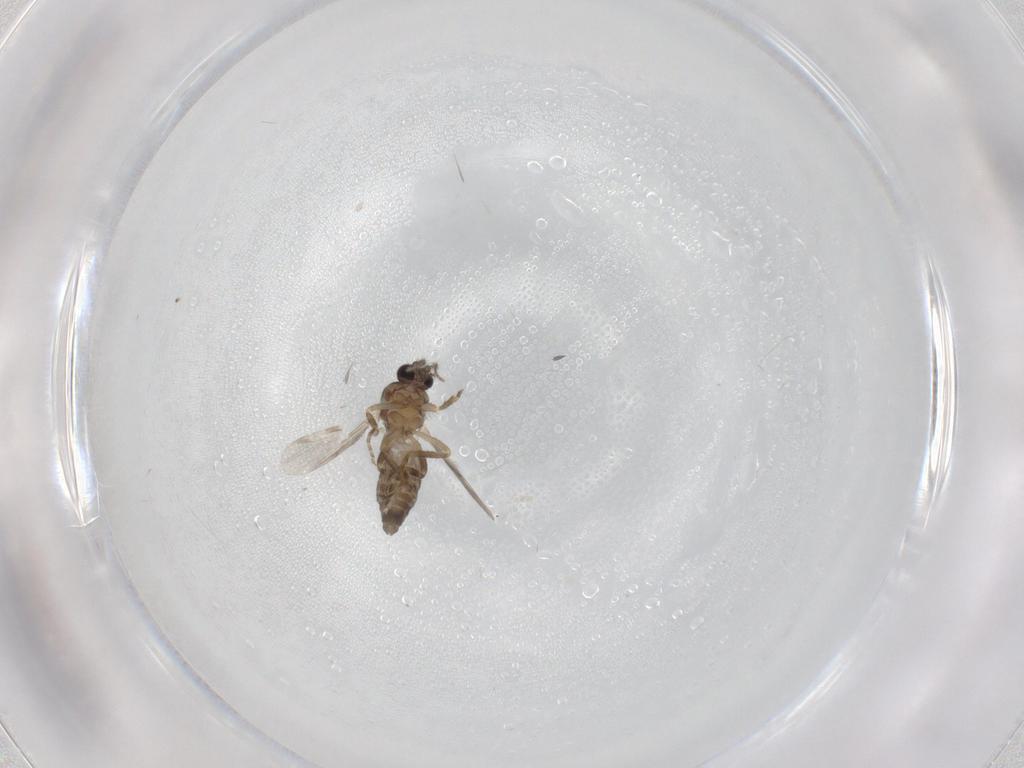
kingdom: Animalia
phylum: Arthropoda
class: Insecta
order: Diptera
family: Ceratopogonidae
